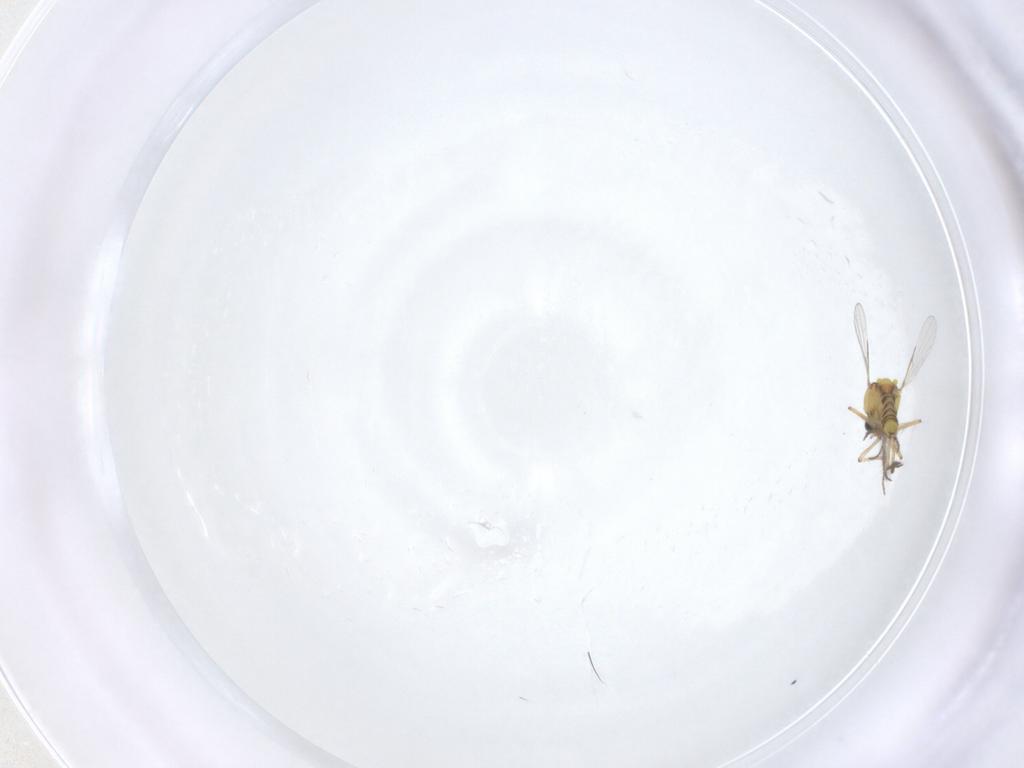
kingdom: Animalia
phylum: Arthropoda
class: Insecta
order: Diptera
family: Ceratopogonidae
